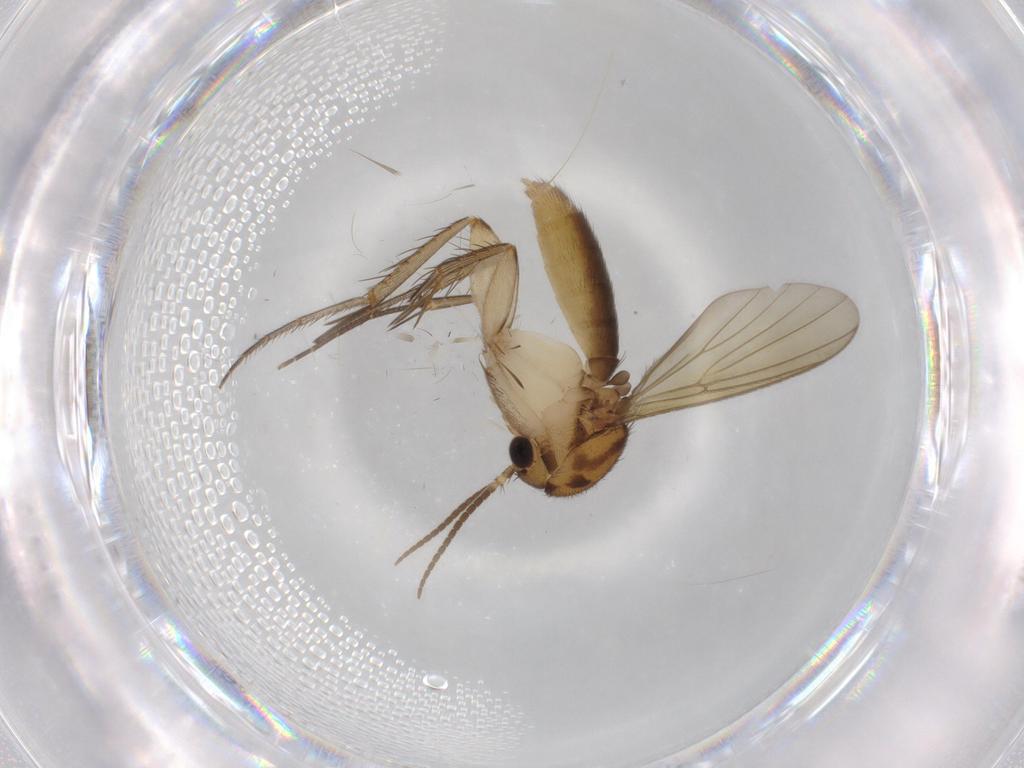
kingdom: Animalia
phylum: Arthropoda
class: Insecta
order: Diptera
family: Mycetophilidae
